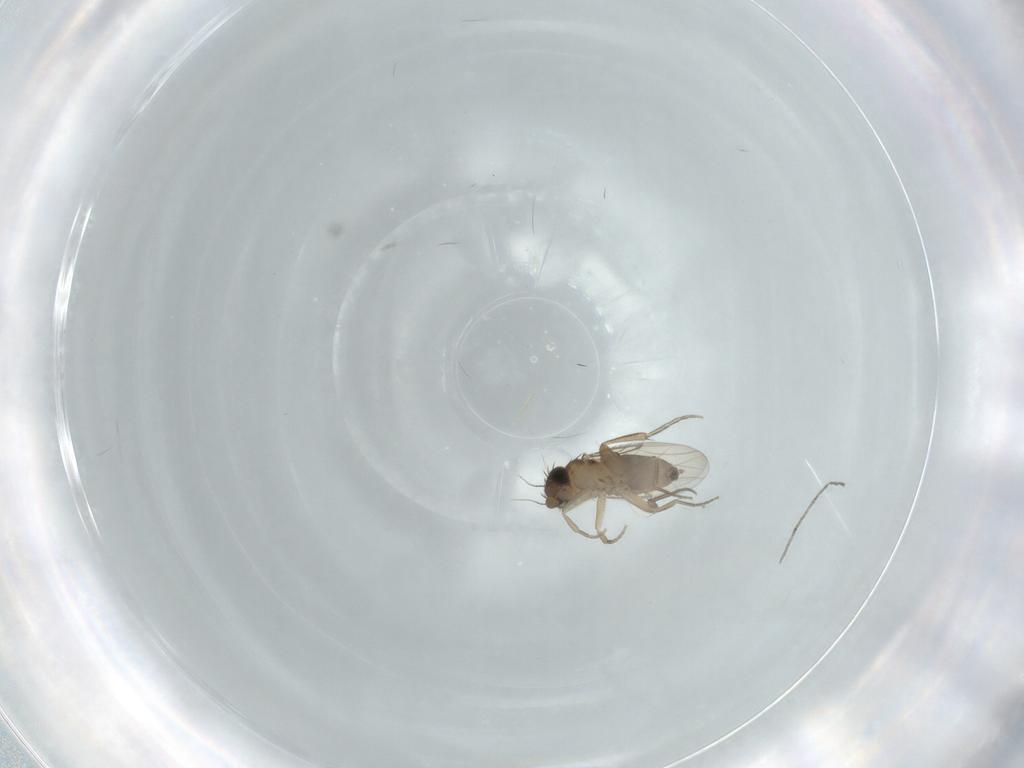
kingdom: Animalia
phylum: Arthropoda
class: Insecta
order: Diptera
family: Phoridae
